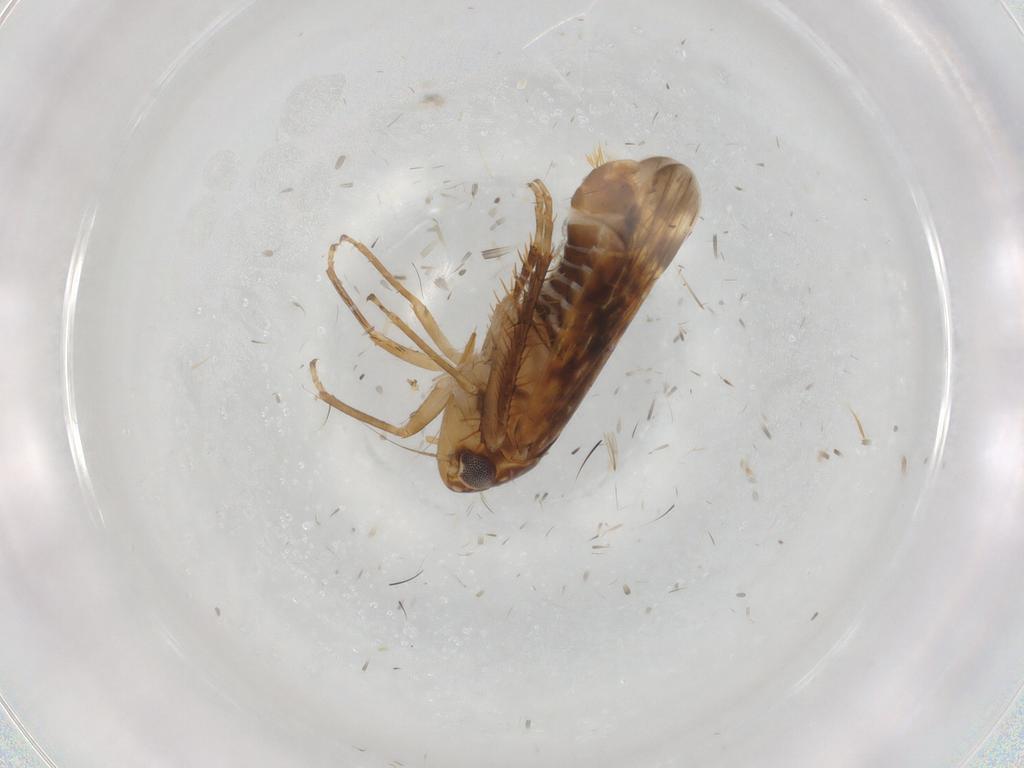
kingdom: Animalia
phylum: Arthropoda
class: Insecta
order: Hemiptera
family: Cicadellidae
